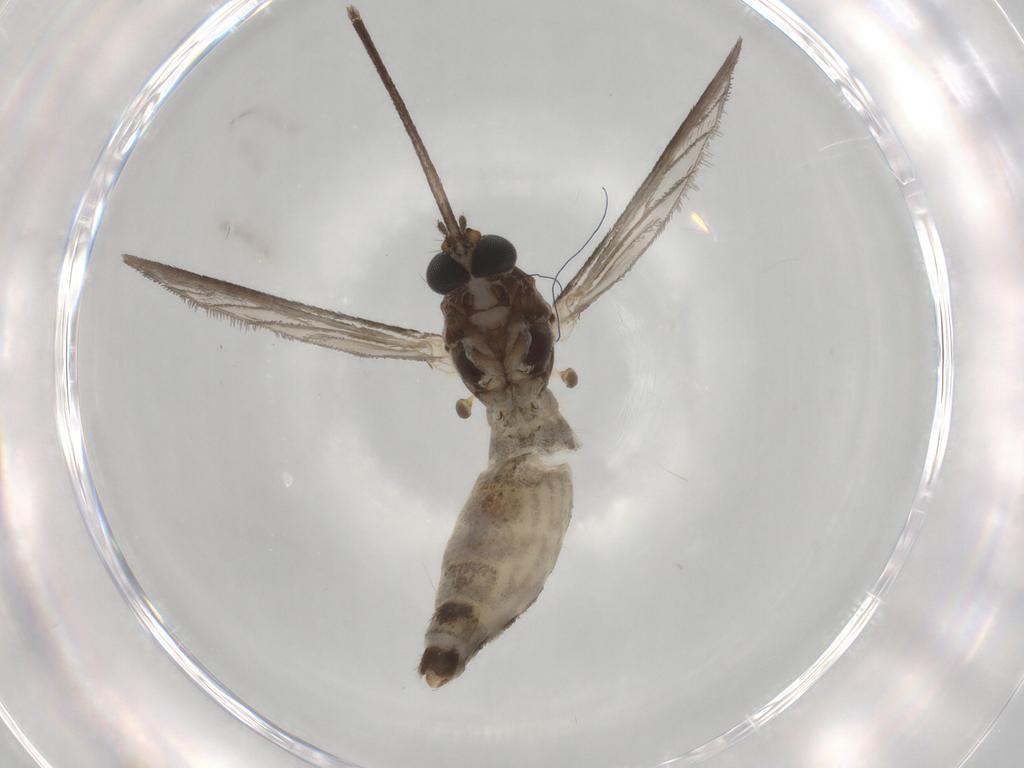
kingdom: Animalia
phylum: Arthropoda
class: Insecta
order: Diptera
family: Calliphoridae
